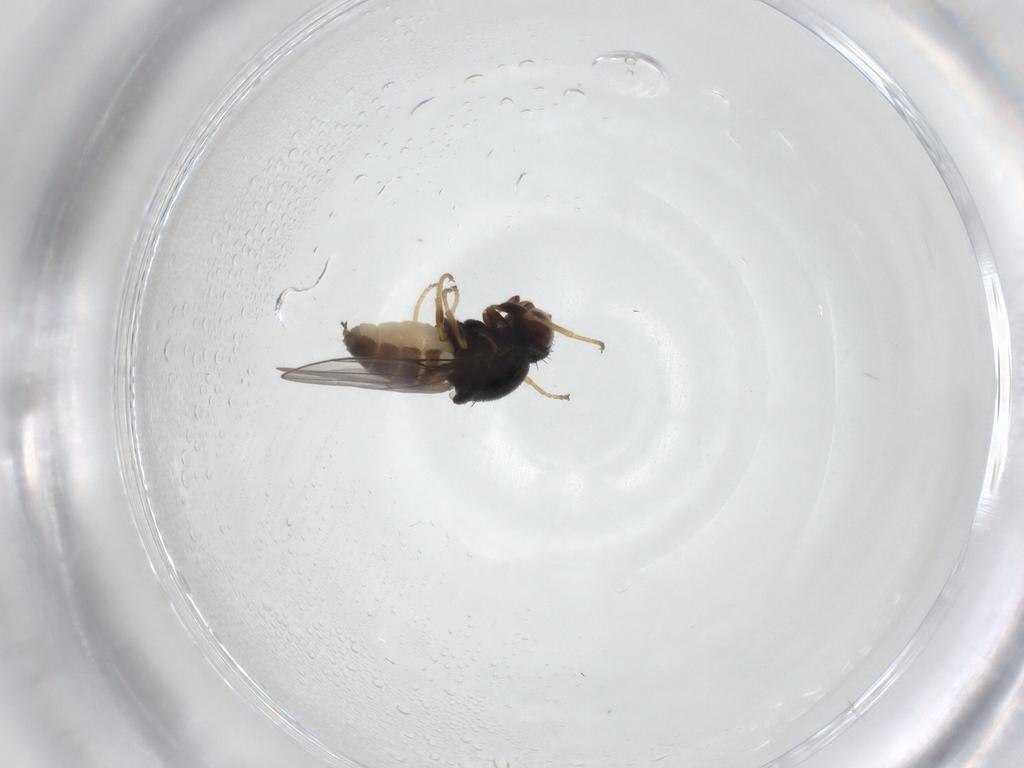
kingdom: Animalia
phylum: Arthropoda
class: Insecta
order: Diptera
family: Chloropidae
